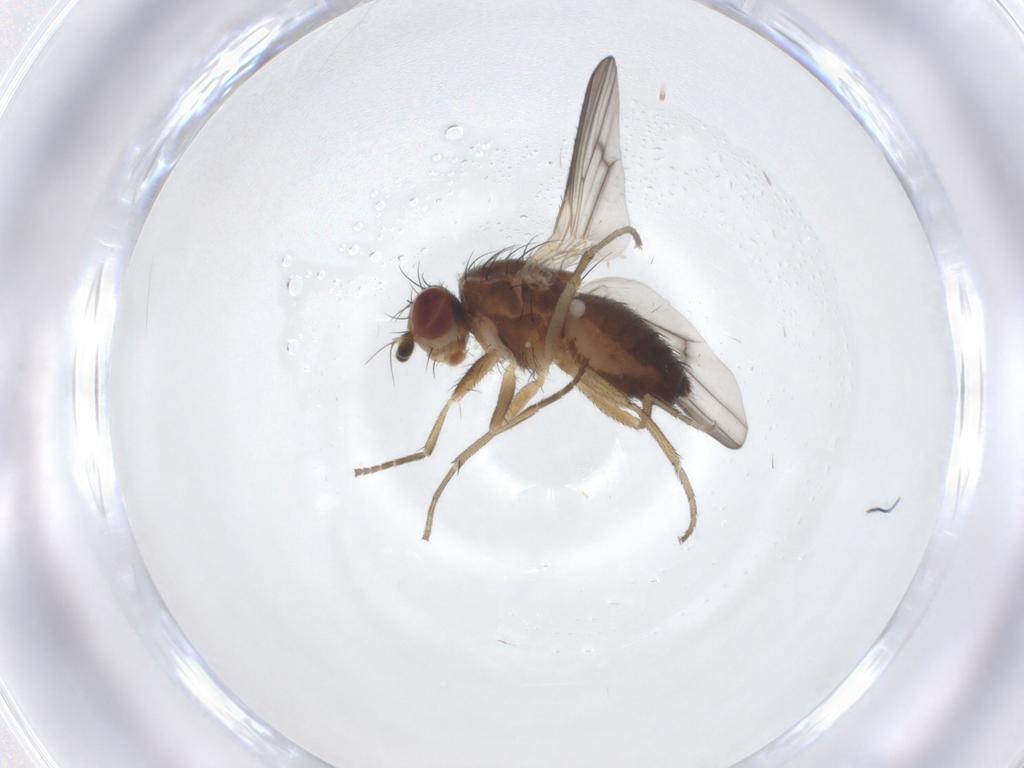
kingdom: Animalia
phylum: Arthropoda
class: Insecta
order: Diptera
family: Heleomyzidae
